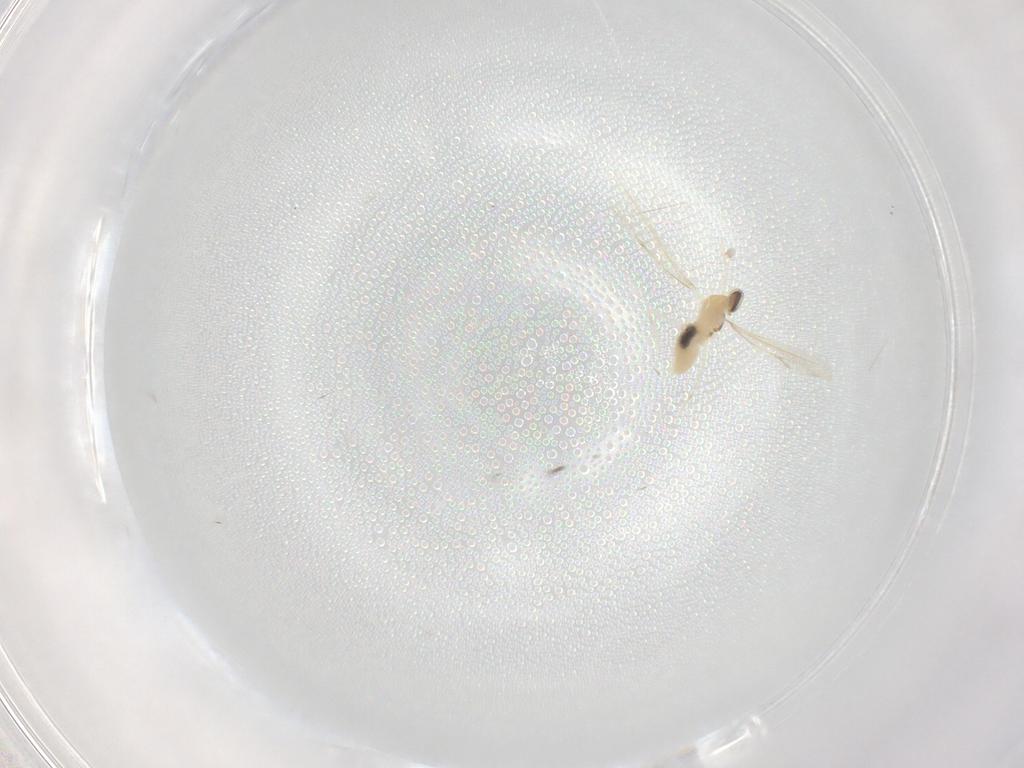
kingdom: Animalia
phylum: Arthropoda
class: Insecta
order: Diptera
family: Cecidomyiidae
